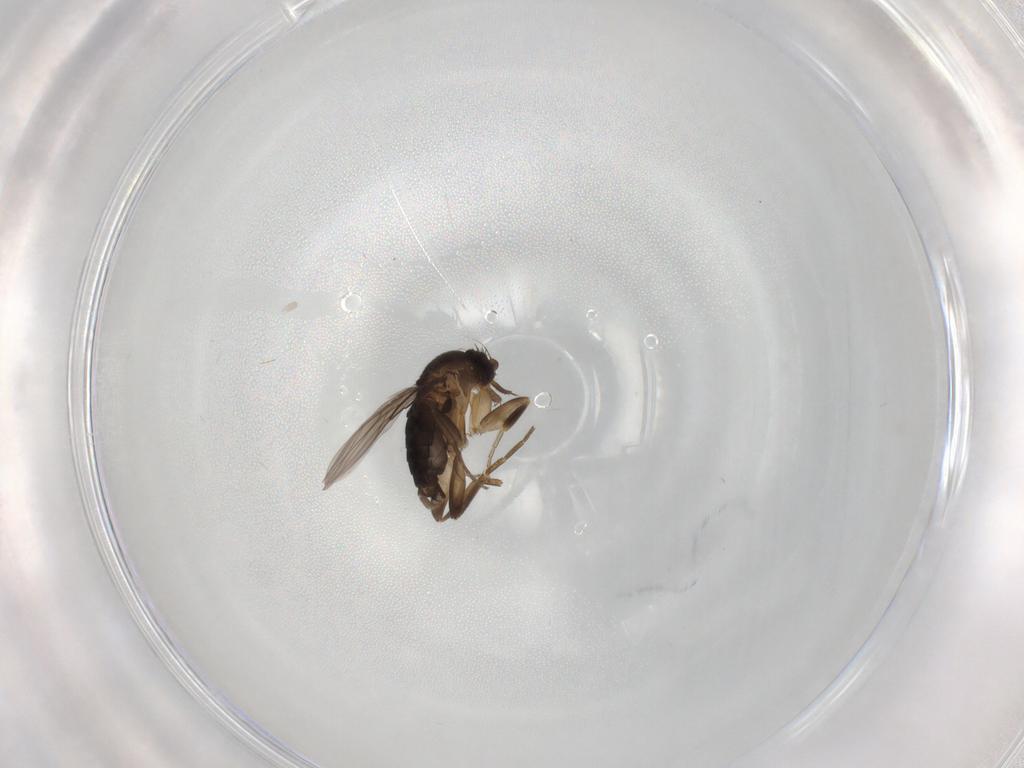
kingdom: Animalia
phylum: Arthropoda
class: Insecta
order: Diptera
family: Phoridae
